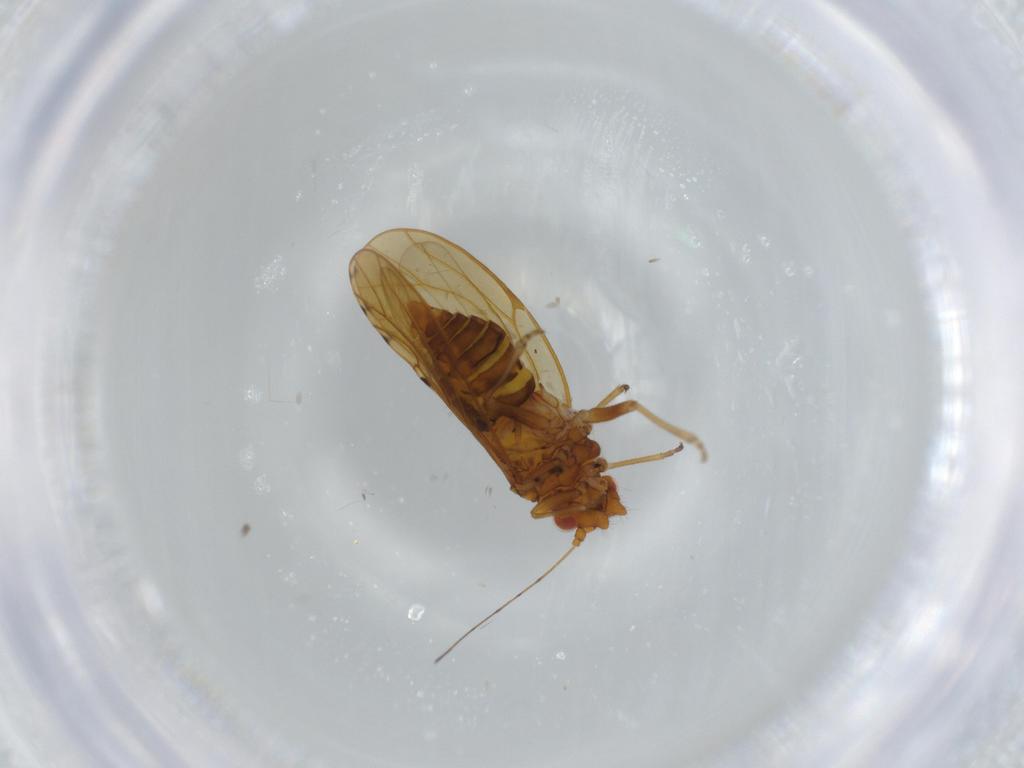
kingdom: Animalia
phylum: Arthropoda
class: Insecta
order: Hemiptera
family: Psylloidea_incertae_sedis
